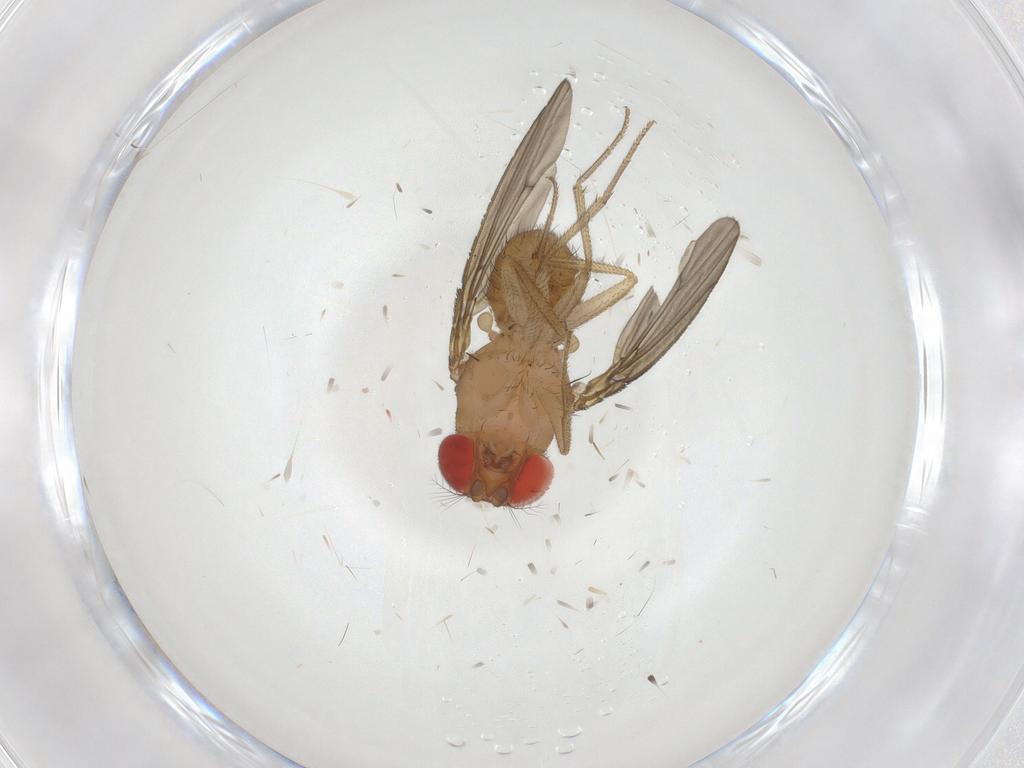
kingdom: Animalia
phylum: Arthropoda
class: Insecta
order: Diptera
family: Drosophilidae
